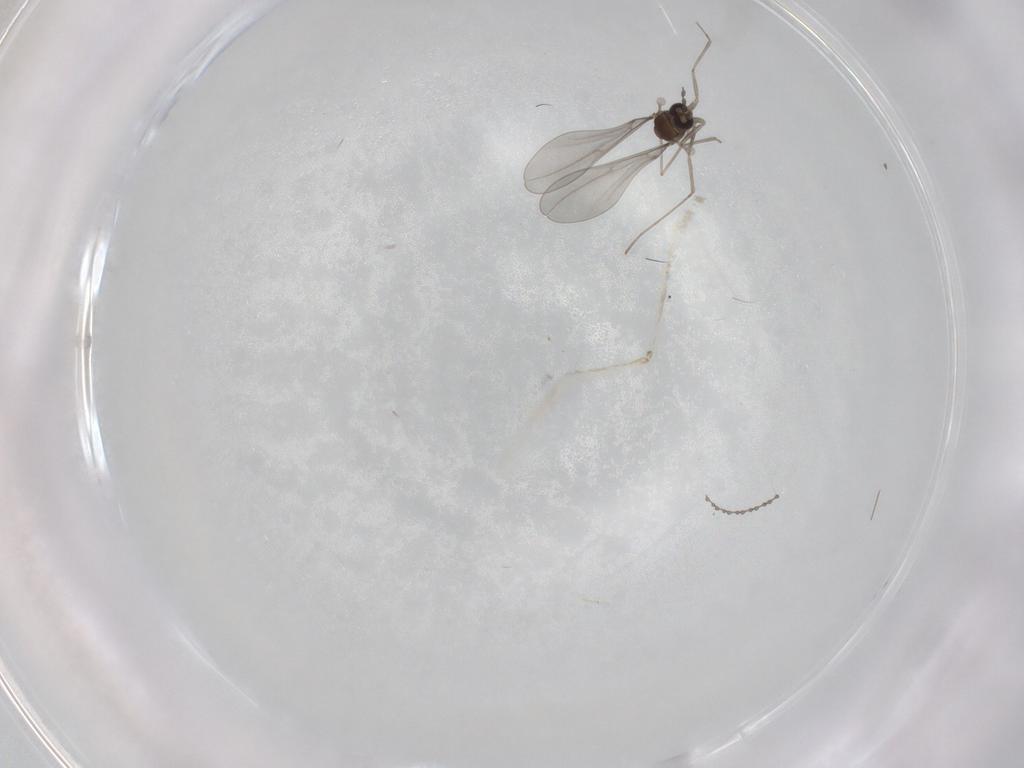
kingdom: Animalia
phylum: Arthropoda
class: Insecta
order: Diptera
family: Cecidomyiidae
